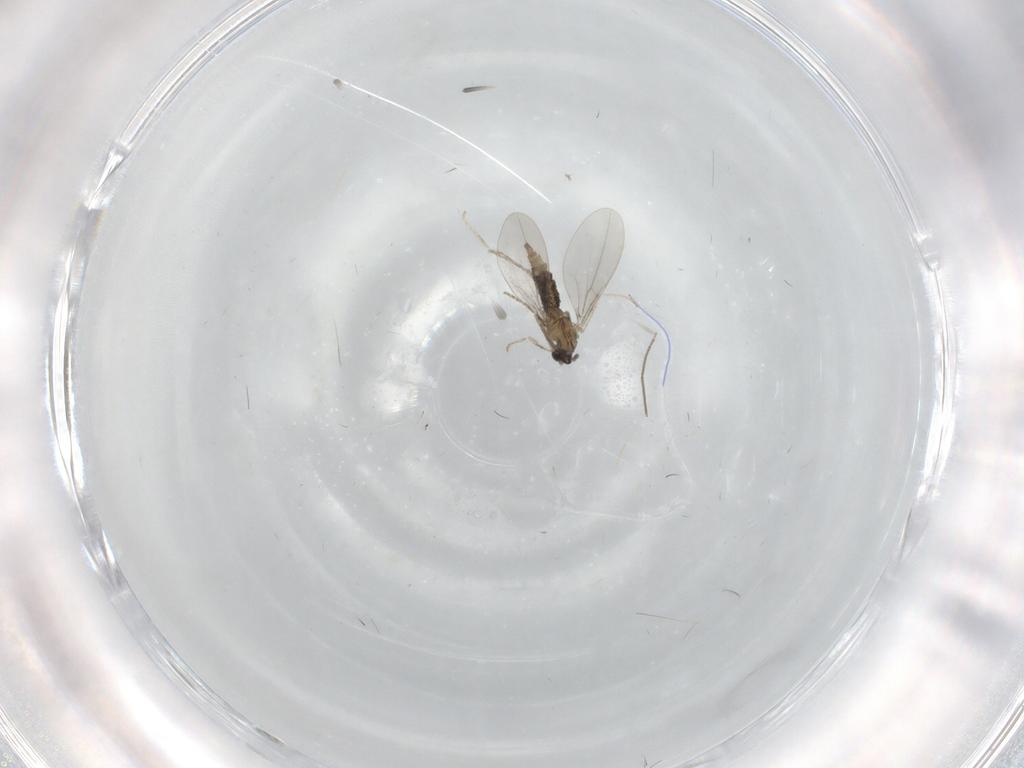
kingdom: Animalia
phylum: Arthropoda
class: Insecta
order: Diptera
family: Cecidomyiidae
